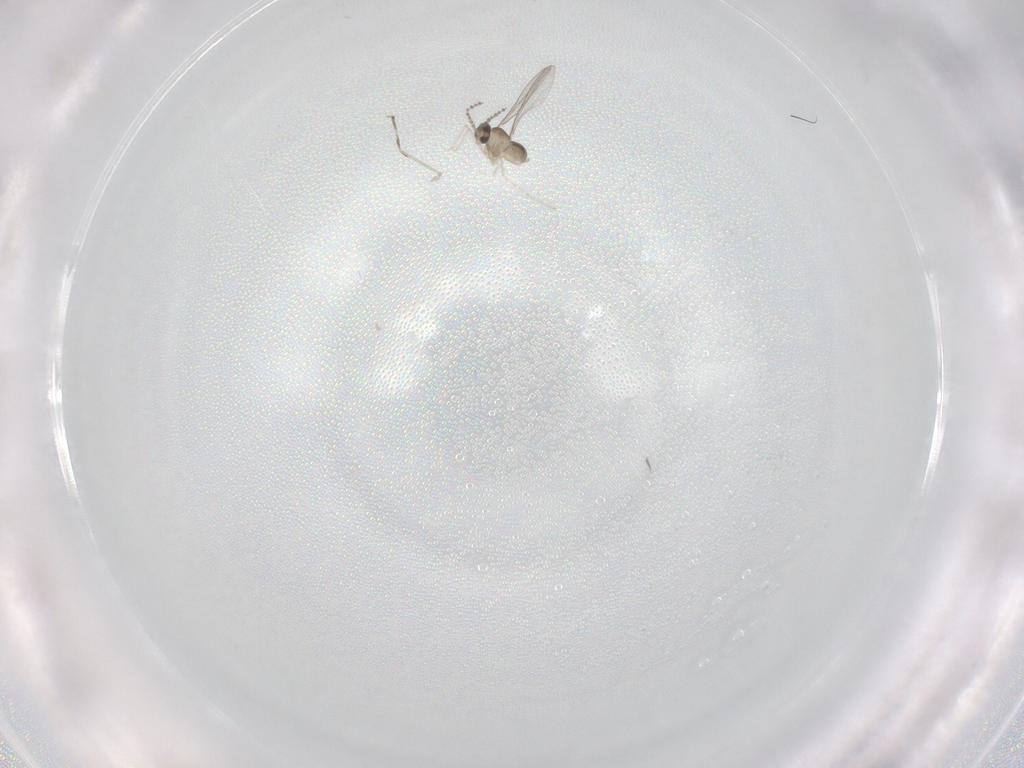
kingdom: Animalia
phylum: Arthropoda
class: Insecta
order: Diptera
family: Cecidomyiidae
